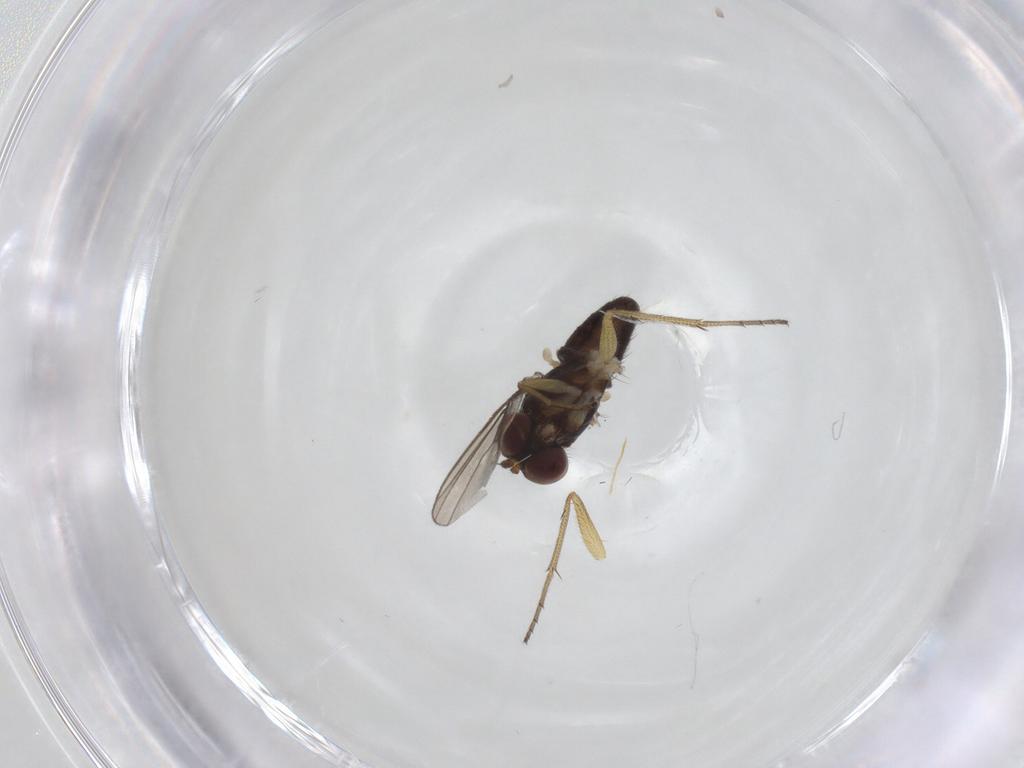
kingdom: Animalia
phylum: Arthropoda
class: Insecta
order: Diptera
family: Dolichopodidae
